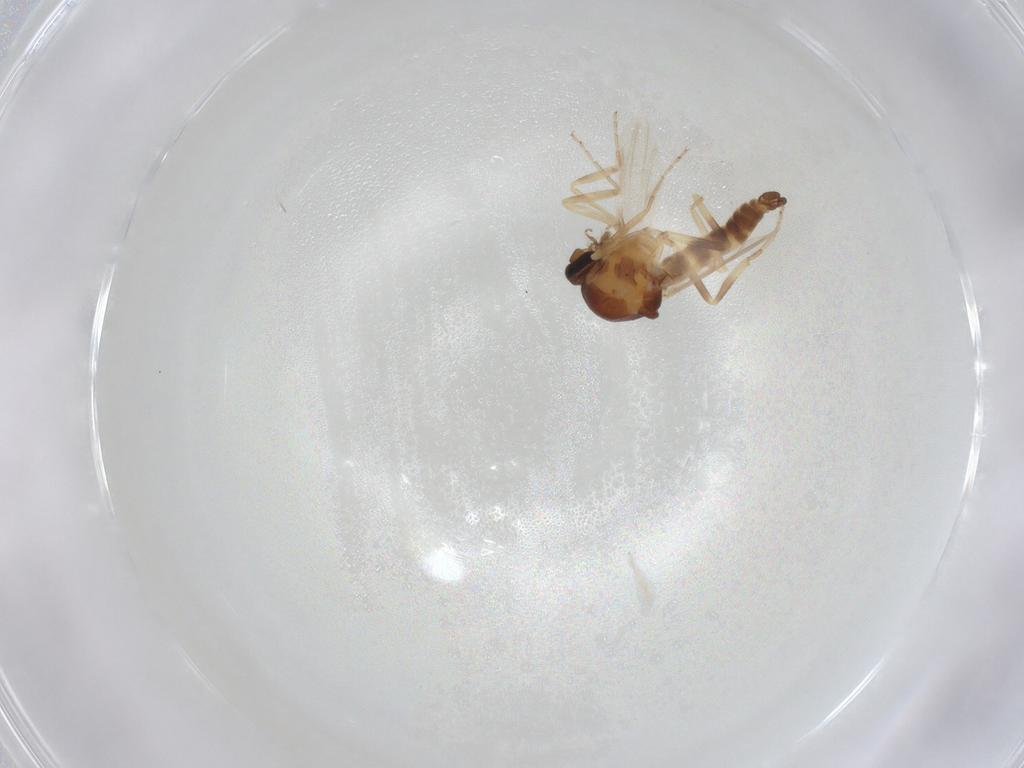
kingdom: Animalia
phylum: Arthropoda
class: Insecta
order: Diptera
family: Ceratopogonidae
